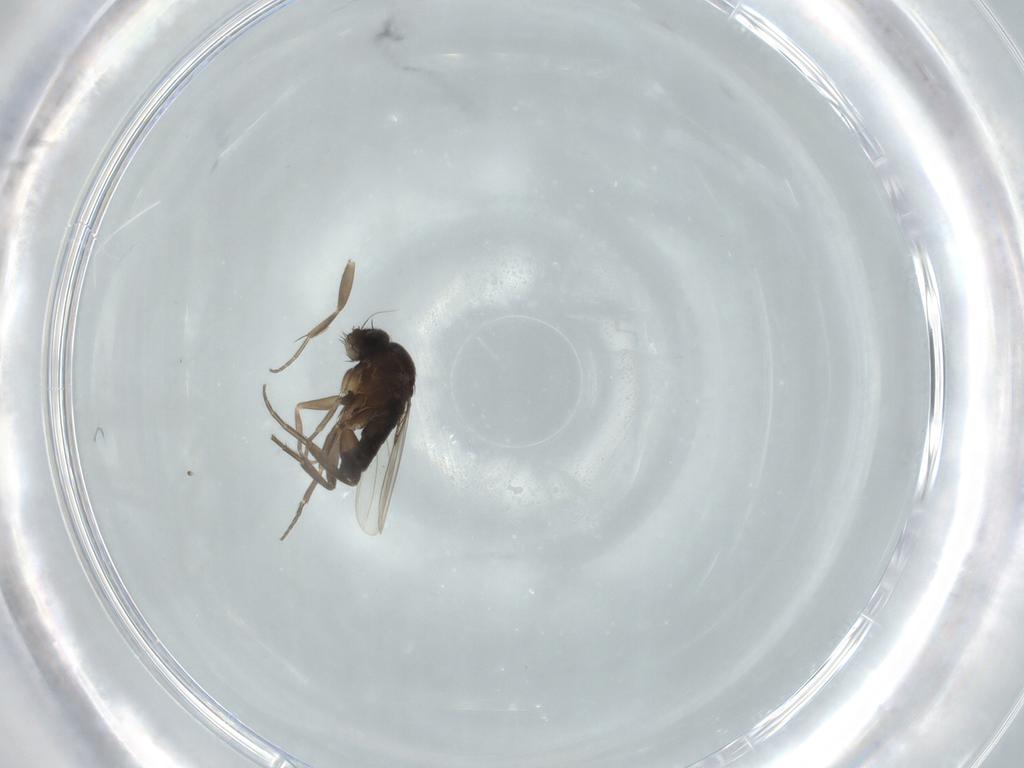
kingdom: Animalia
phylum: Arthropoda
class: Insecta
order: Diptera
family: Phoridae
